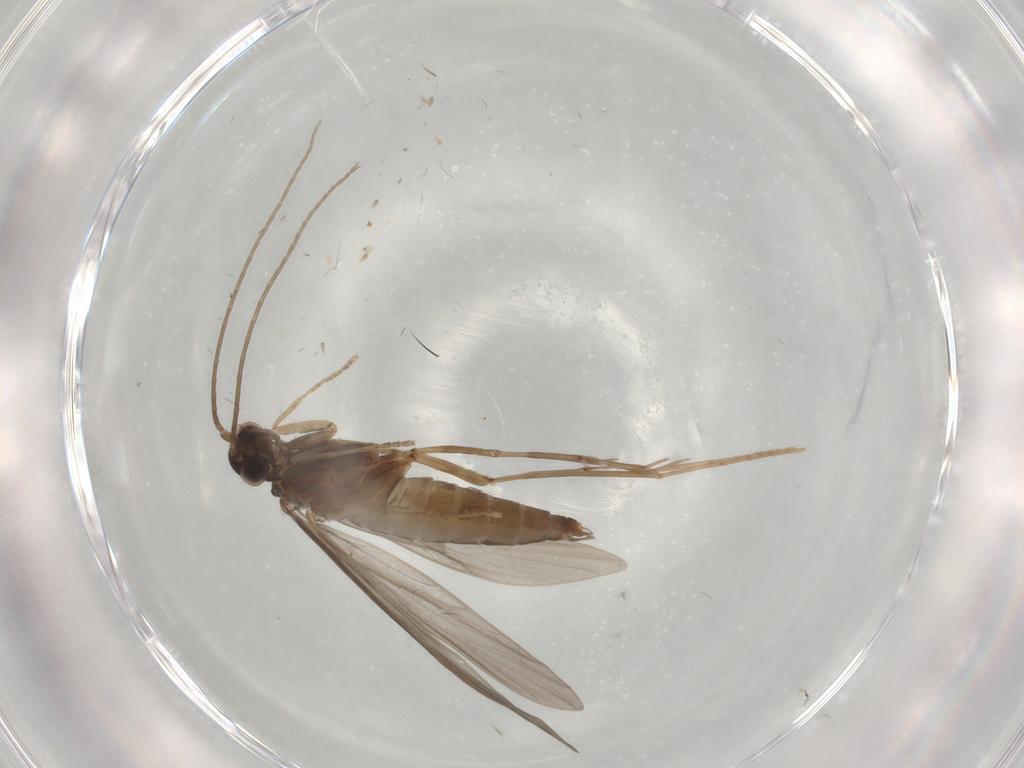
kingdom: Animalia
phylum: Arthropoda
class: Insecta
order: Trichoptera
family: Xiphocentronidae
